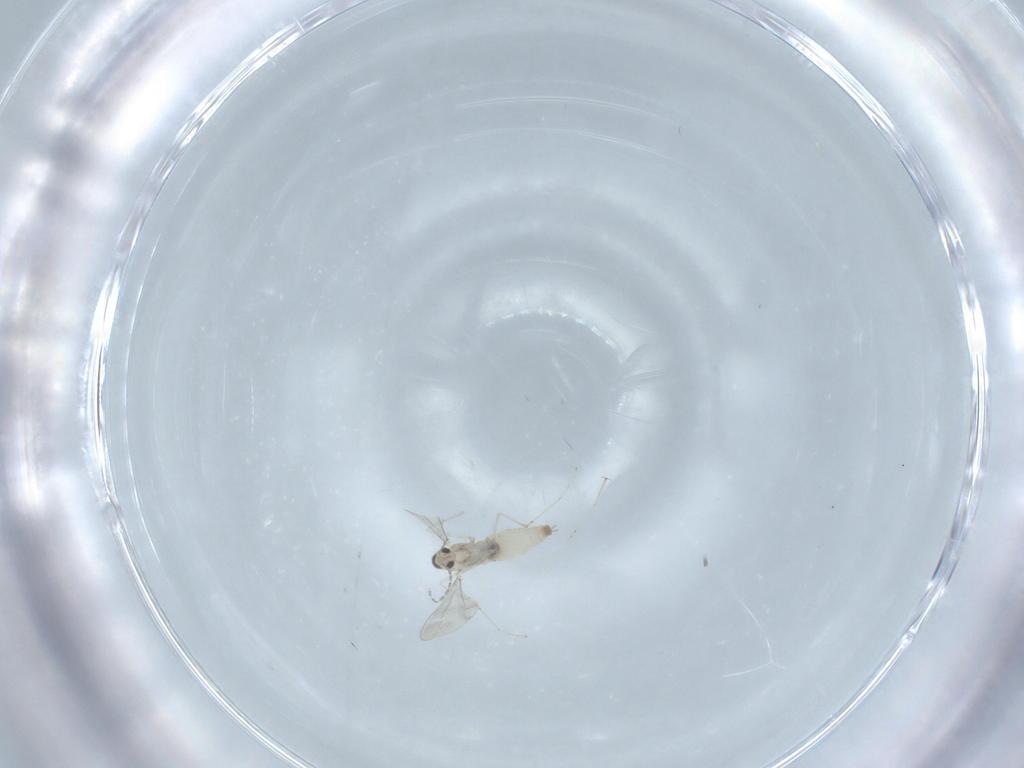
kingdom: Animalia
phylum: Arthropoda
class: Insecta
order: Diptera
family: Cecidomyiidae
